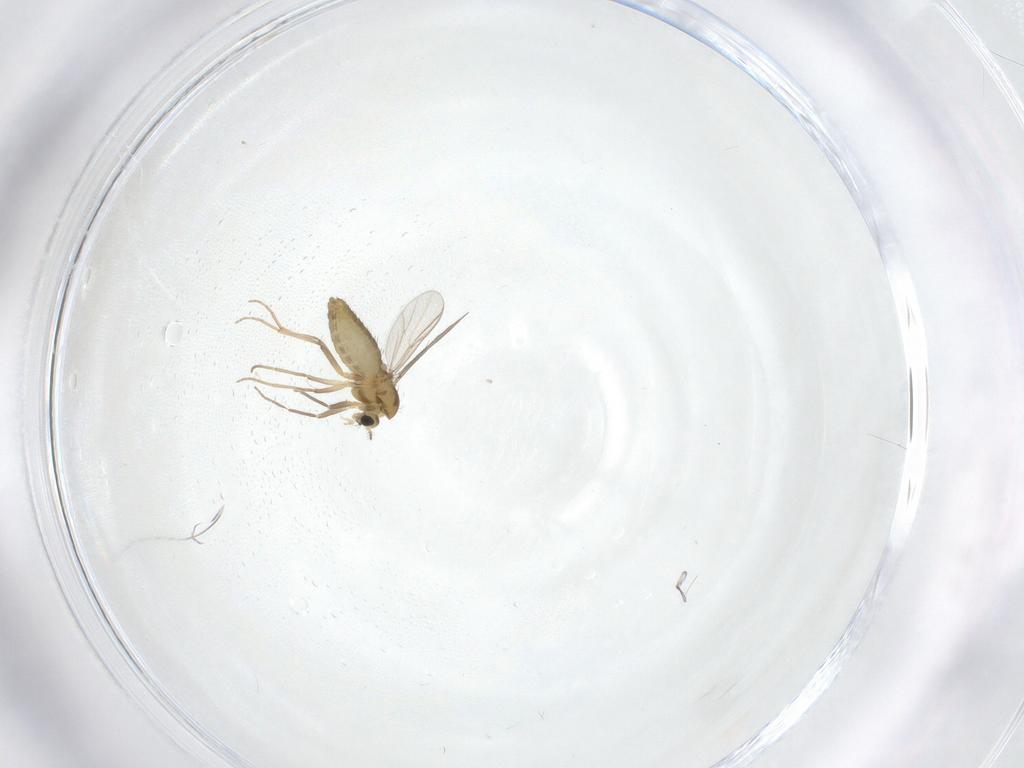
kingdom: Animalia
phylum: Arthropoda
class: Insecta
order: Diptera
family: Chironomidae
